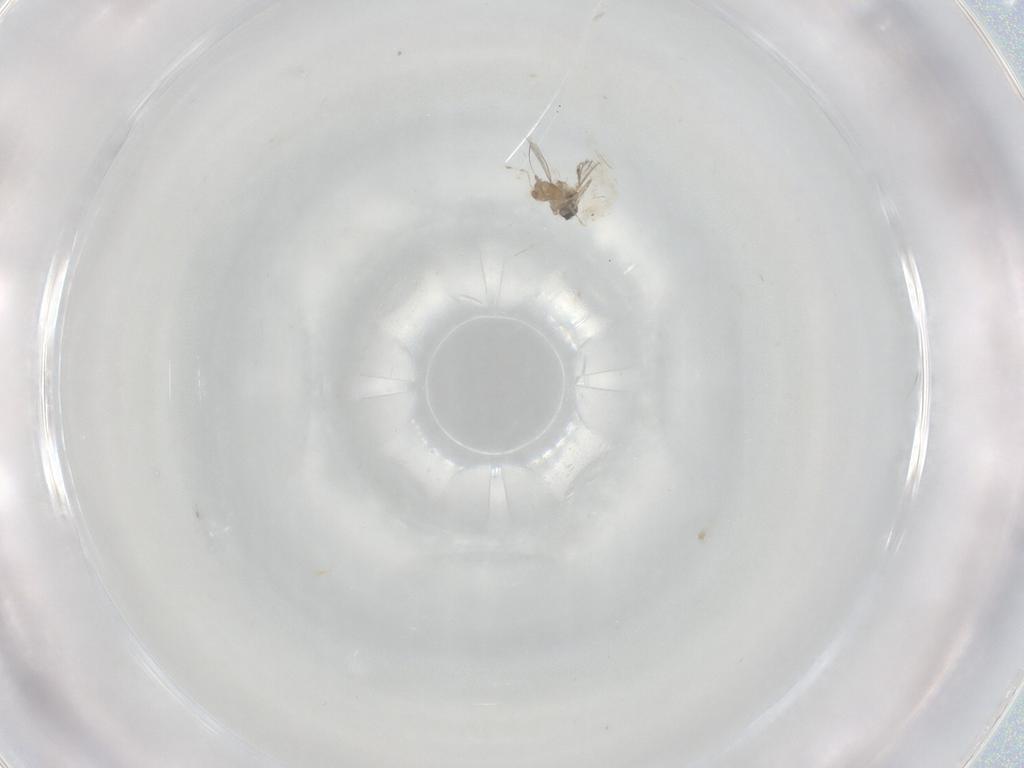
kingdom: Animalia
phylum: Arthropoda
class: Insecta
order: Diptera
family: Cecidomyiidae
